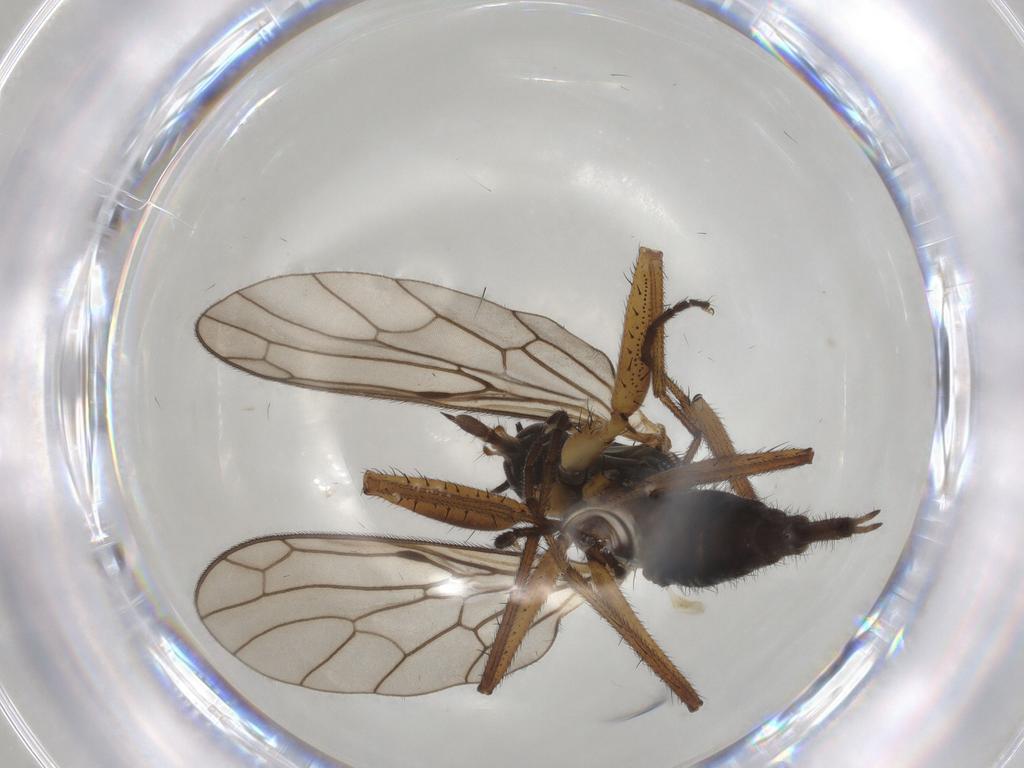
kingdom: Animalia
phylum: Arthropoda
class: Insecta
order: Diptera
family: Empididae
